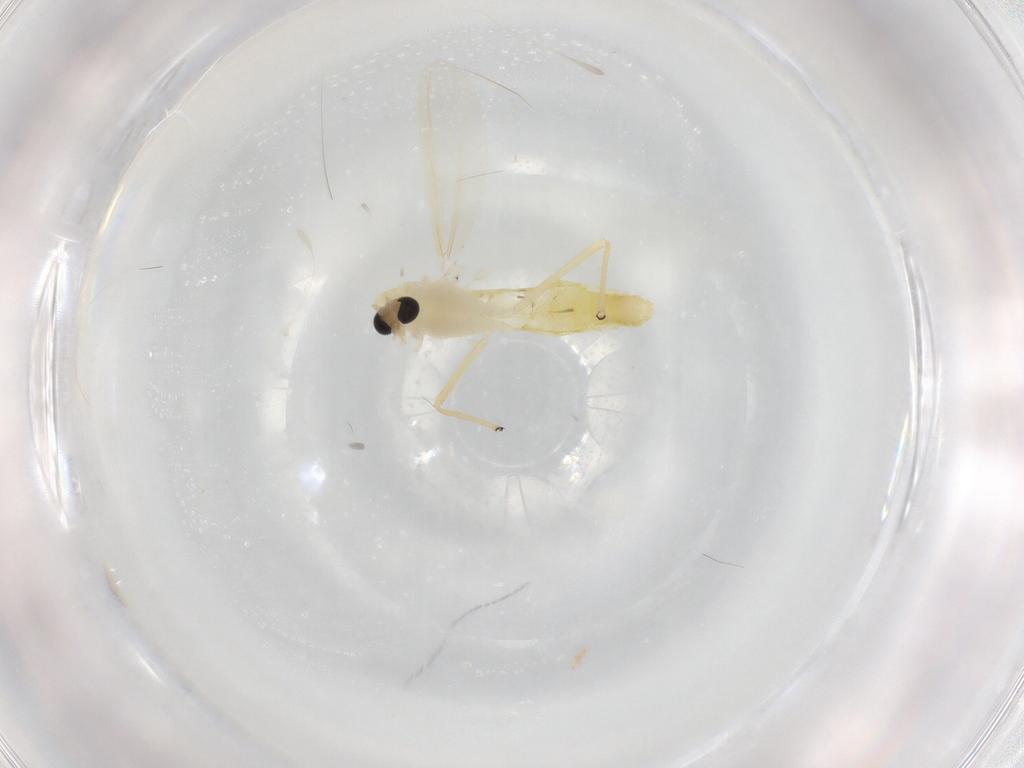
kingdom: Animalia
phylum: Arthropoda
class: Insecta
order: Diptera
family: Chironomidae
